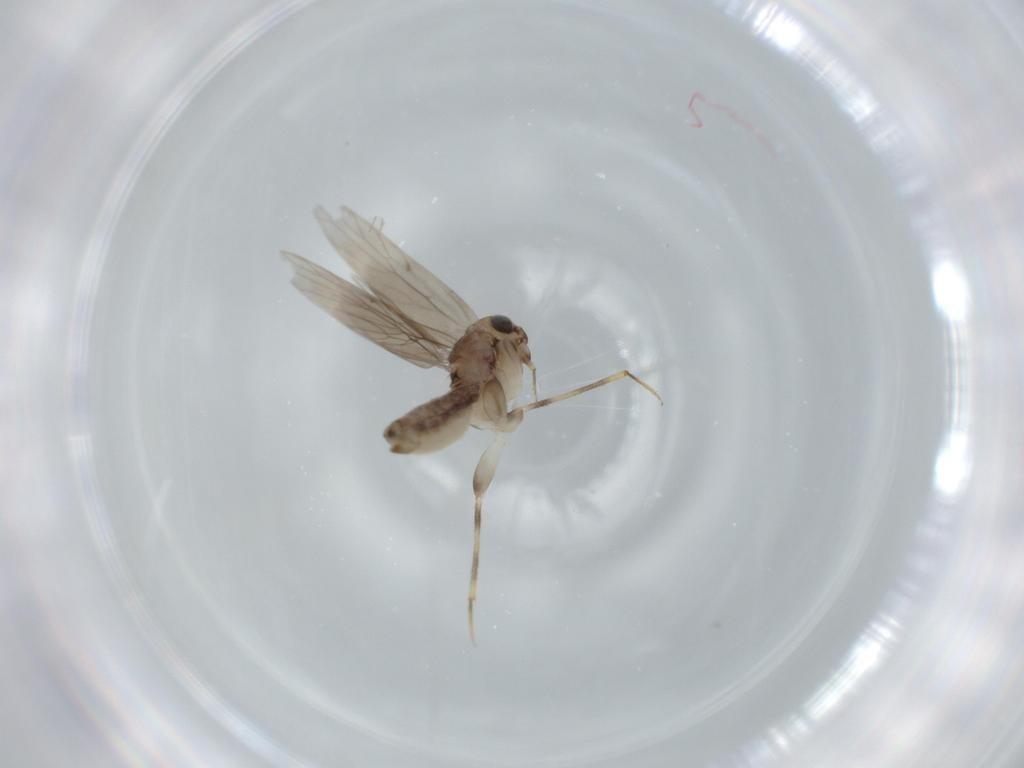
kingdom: Animalia
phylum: Arthropoda
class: Insecta
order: Psocodea
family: Lepidopsocidae
